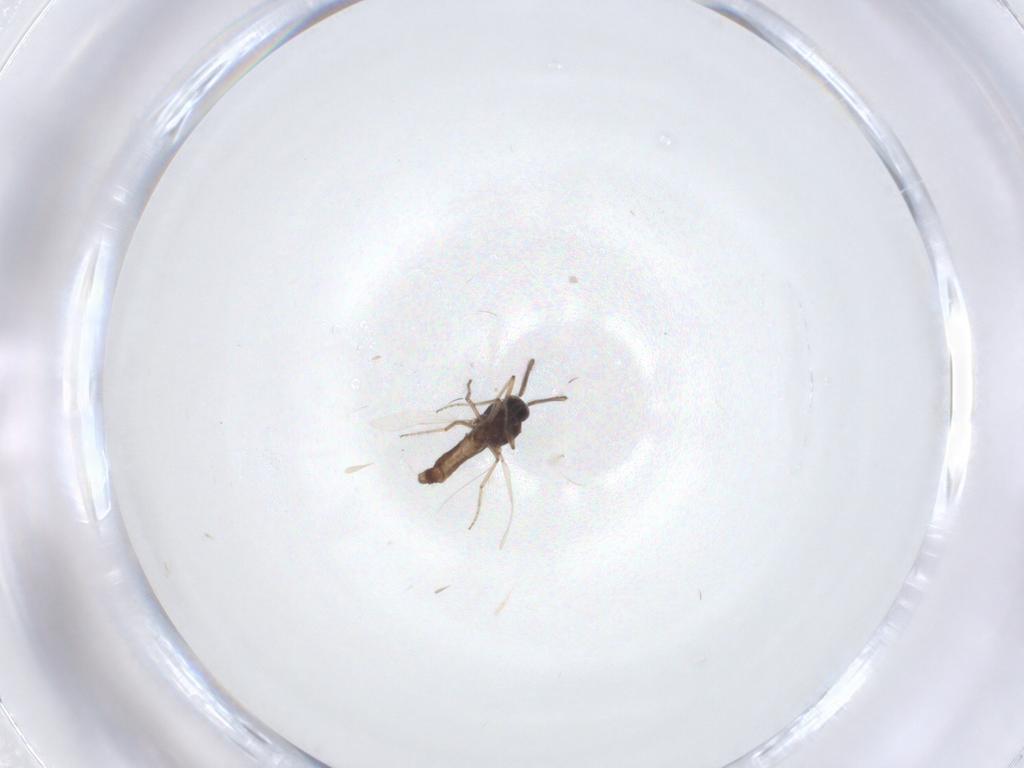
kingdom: Animalia
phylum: Arthropoda
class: Insecta
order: Diptera
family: Ceratopogonidae
